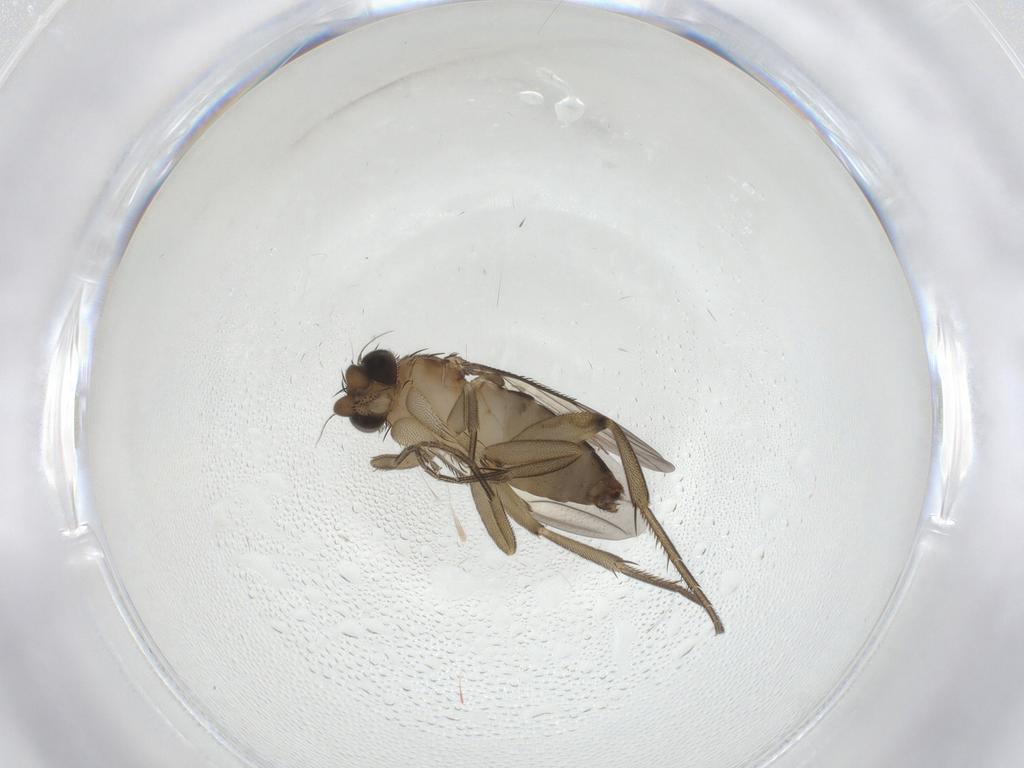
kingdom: Animalia
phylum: Arthropoda
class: Insecta
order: Diptera
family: Phoridae
